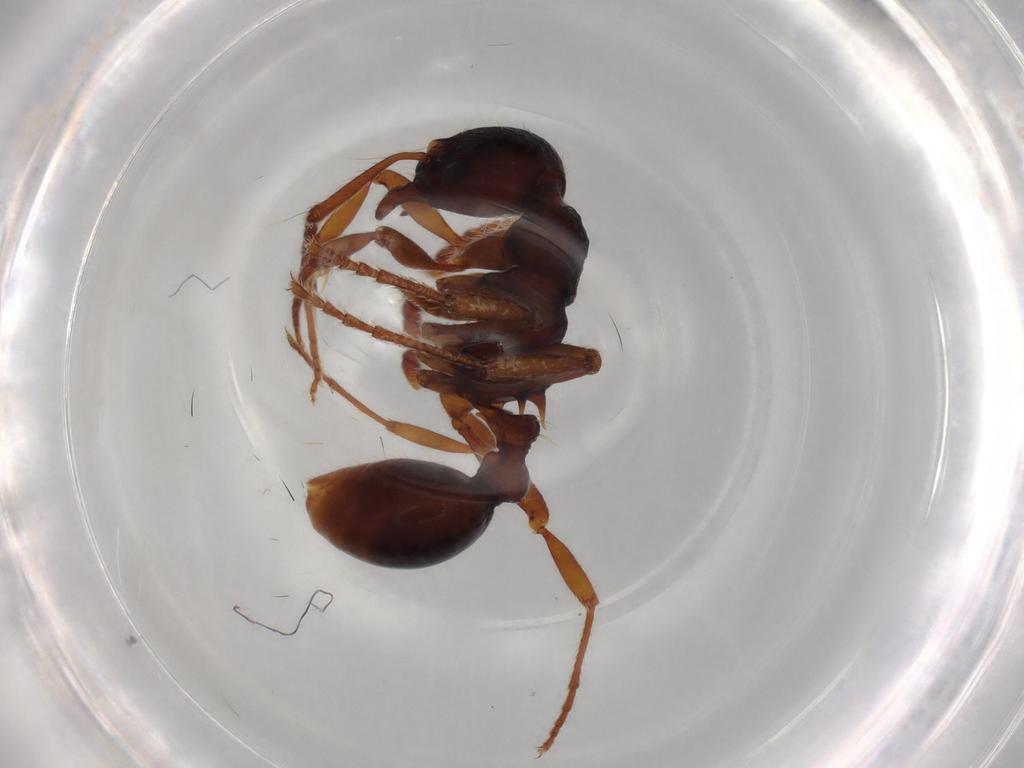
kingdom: Animalia
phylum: Arthropoda
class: Insecta
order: Hymenoptera
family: Formicidae
